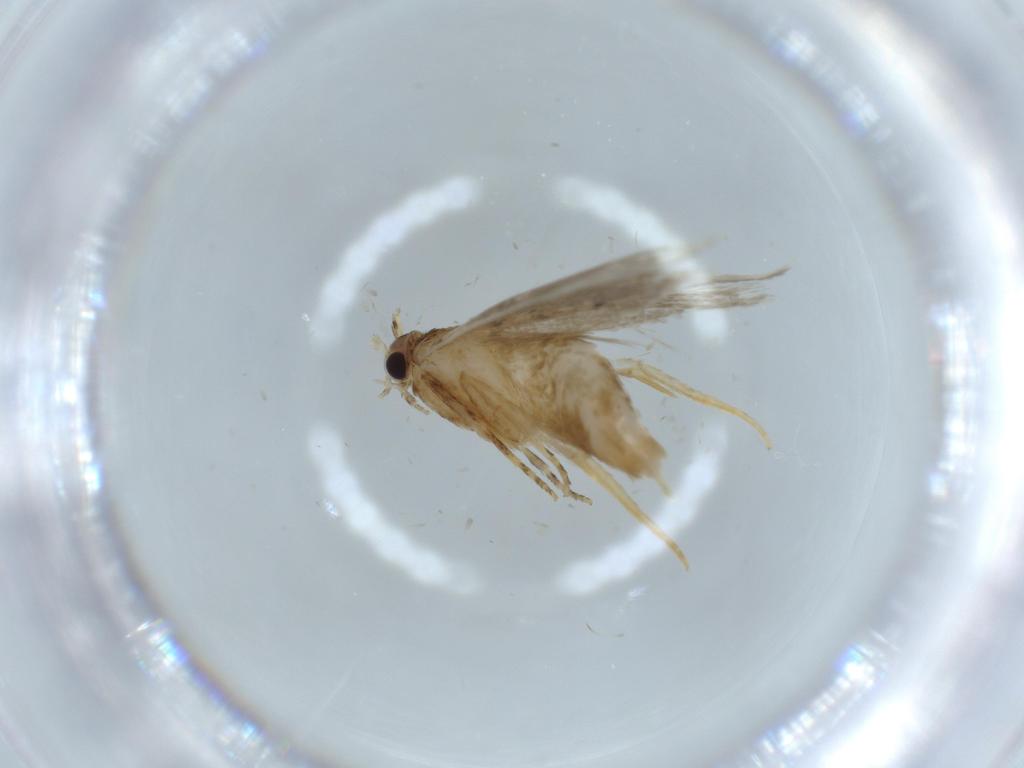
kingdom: Animalia
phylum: Arthropoda
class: Insecta
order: Lepidoptera
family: Tineidae
